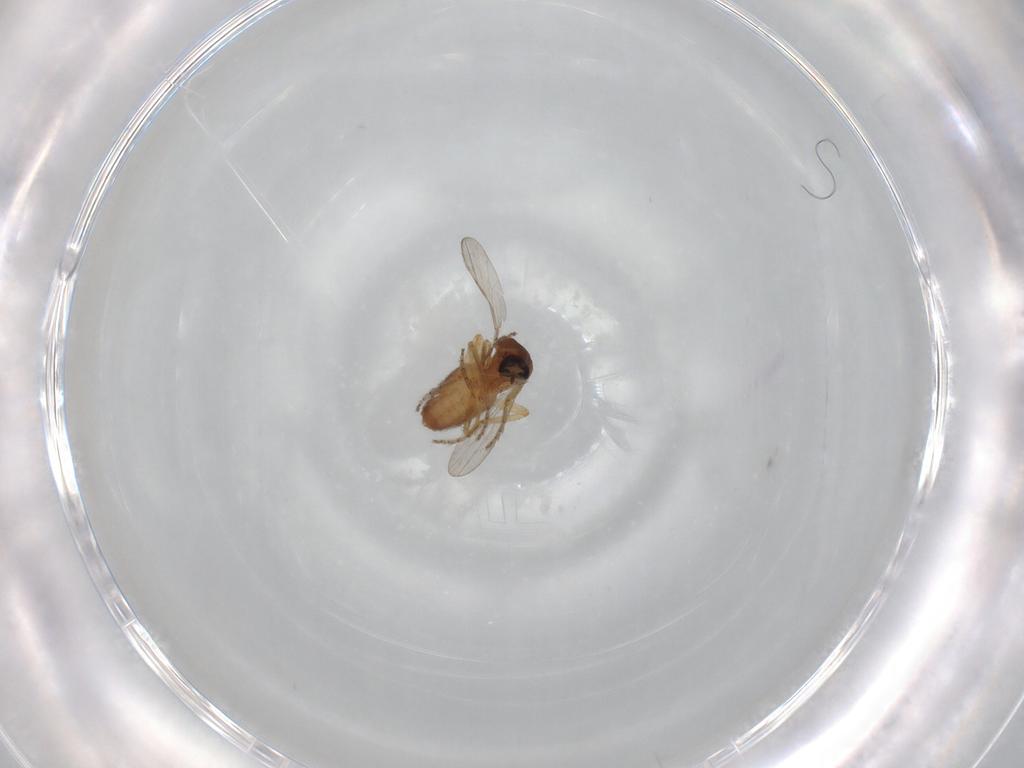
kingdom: Animalia
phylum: Arthropoda
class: Insecta
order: Diptera
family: Ceratopogonidae
